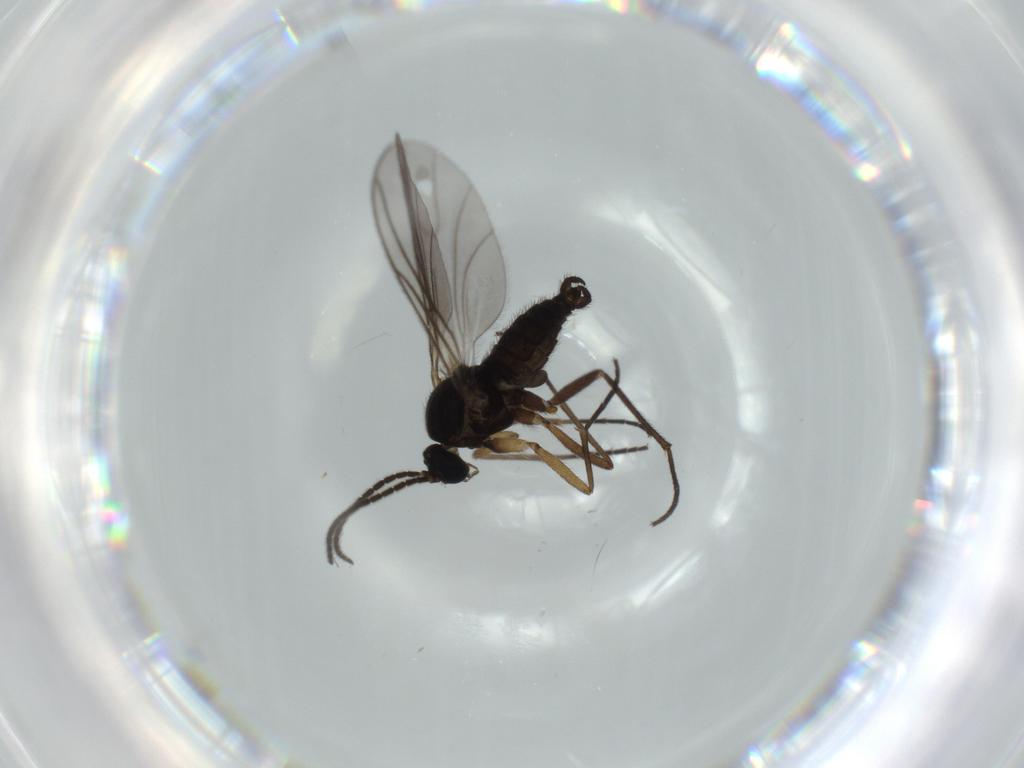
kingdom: Animalia
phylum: Arthropoda
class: Insecta
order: Diptera
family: Sciaridae
